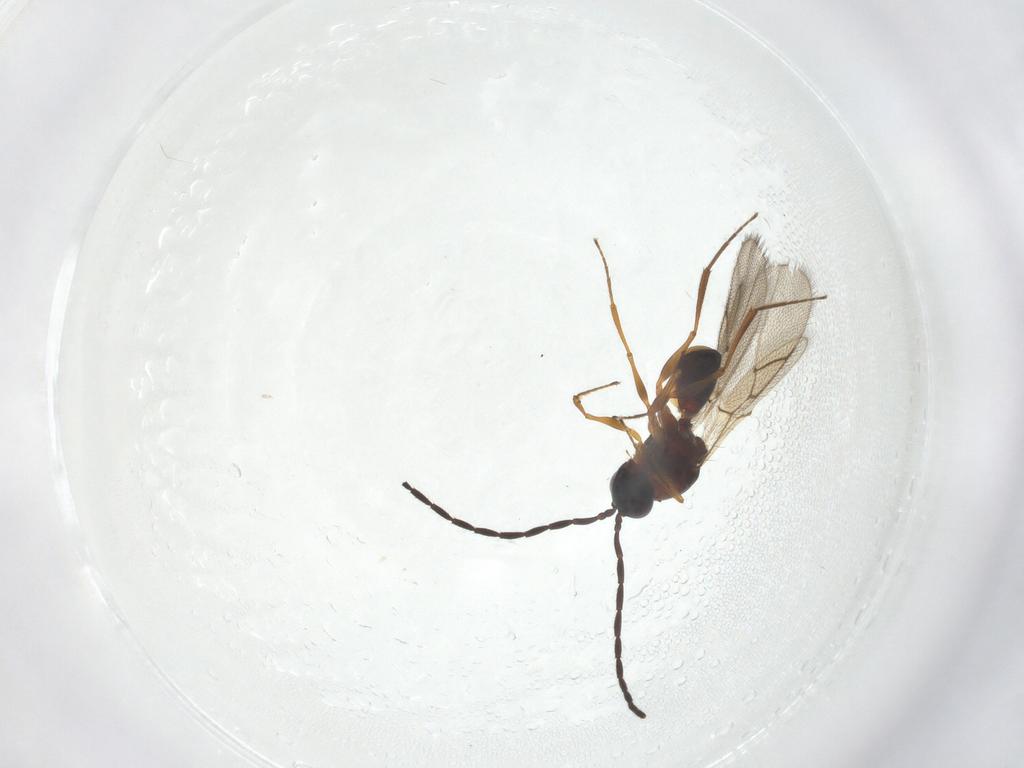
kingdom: Animalia
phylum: Arthropoda
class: Insecta
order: Hymenoptera
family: Figitidae
